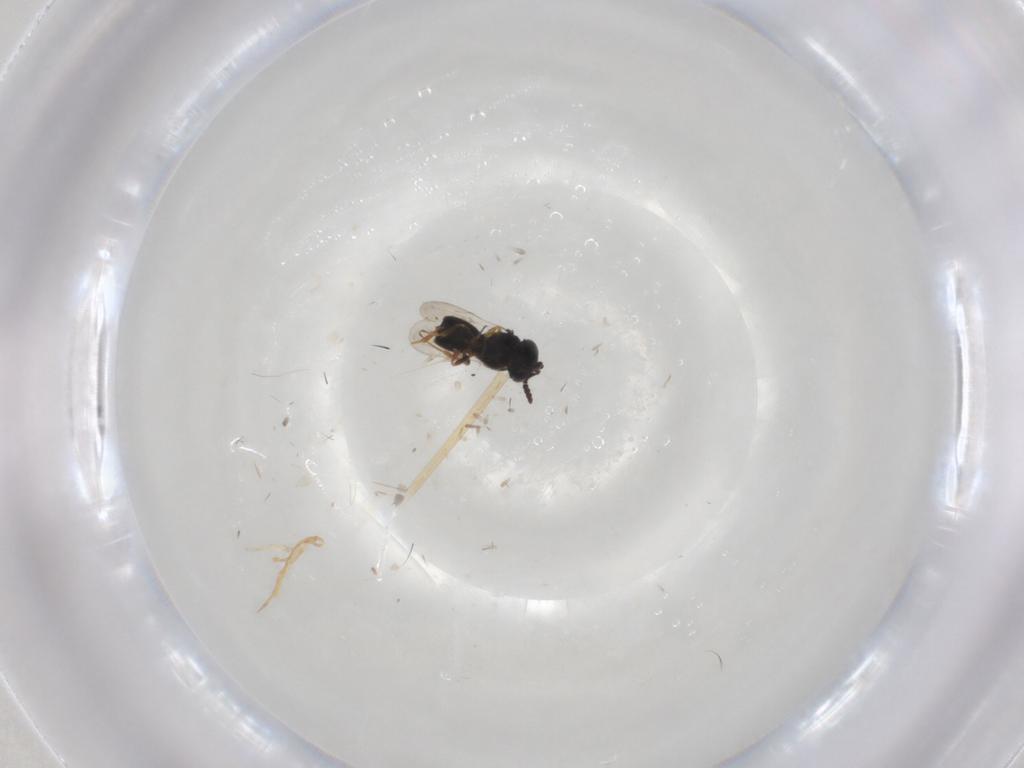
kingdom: Animalia
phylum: Arthropoda
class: Insecta
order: Hymenoptera
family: Scelionidae
